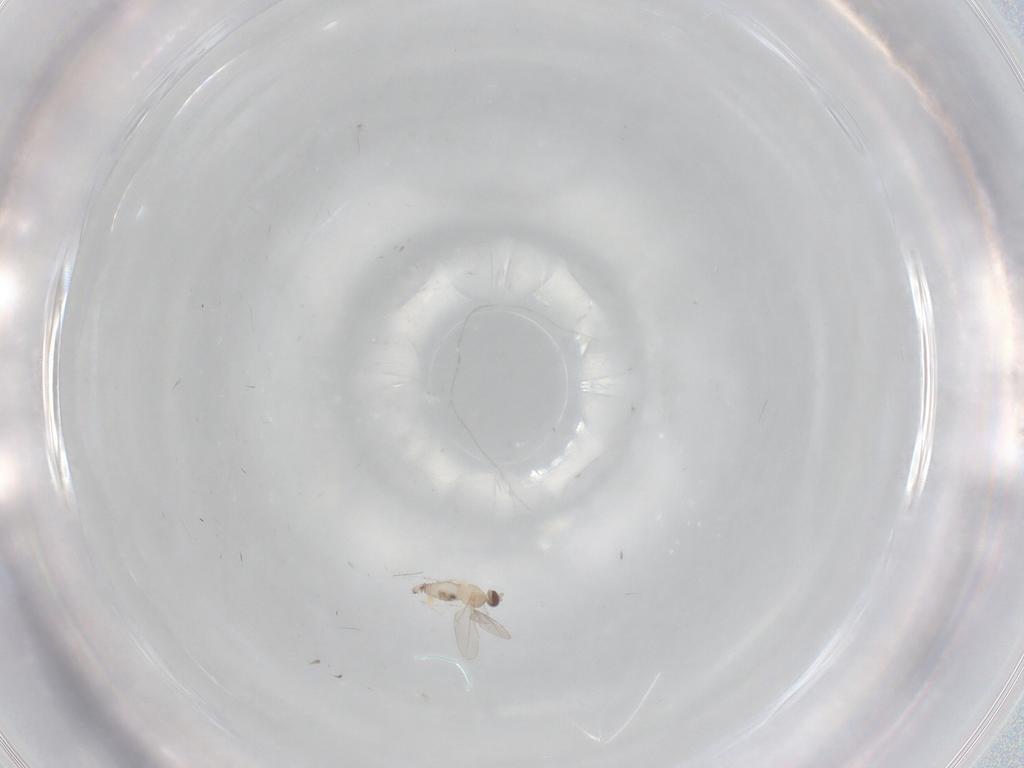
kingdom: Animalia
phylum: Arthropoda
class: Insecta
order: Diptera
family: Cecidomyiidae
